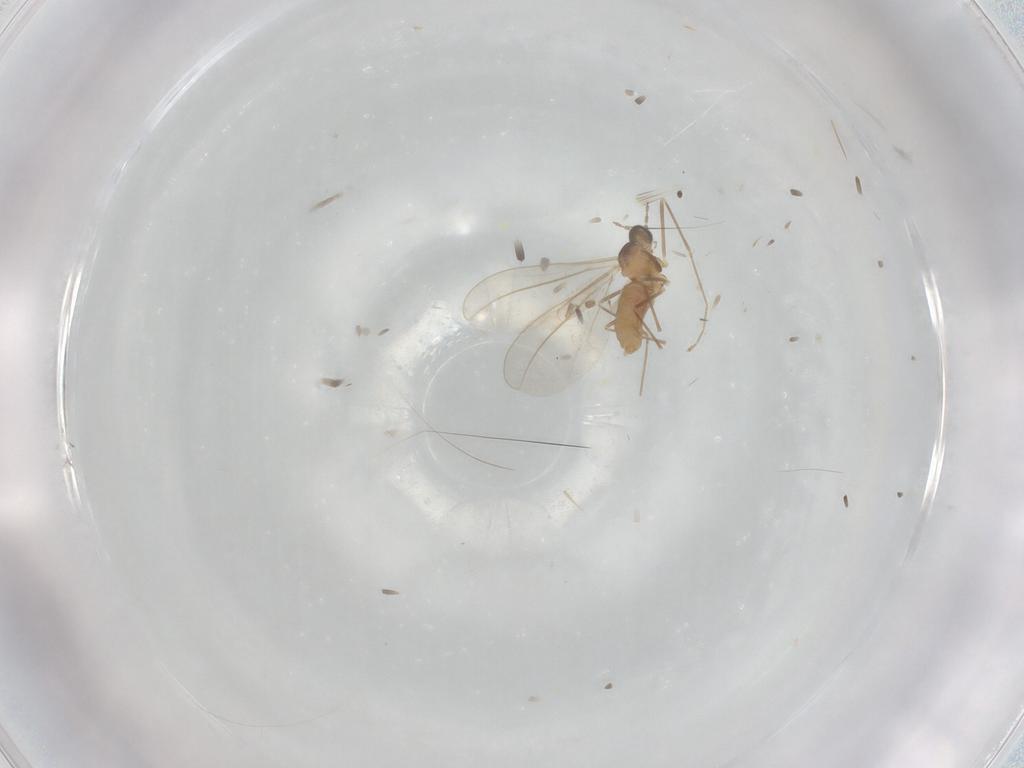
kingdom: Animalia
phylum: Arthropoda
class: Insecta
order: Diptera
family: Cecidomyiidae
